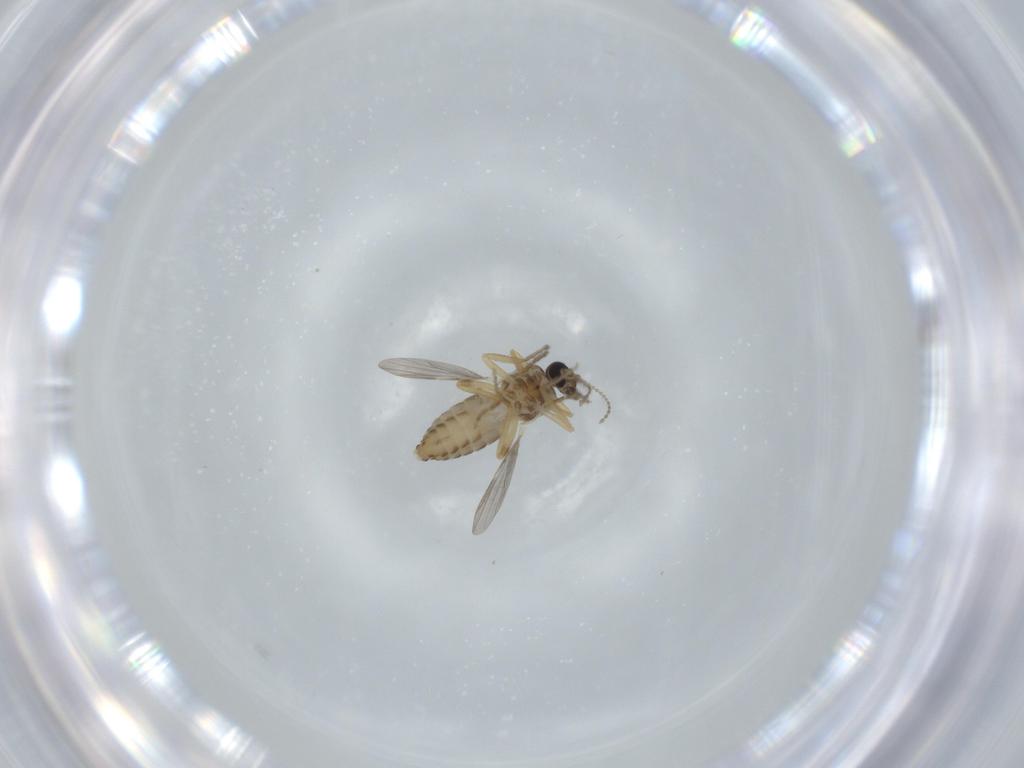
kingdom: Animalia
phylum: Arthropoda
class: Insecta
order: Diptera
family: Ceratopogonidae
